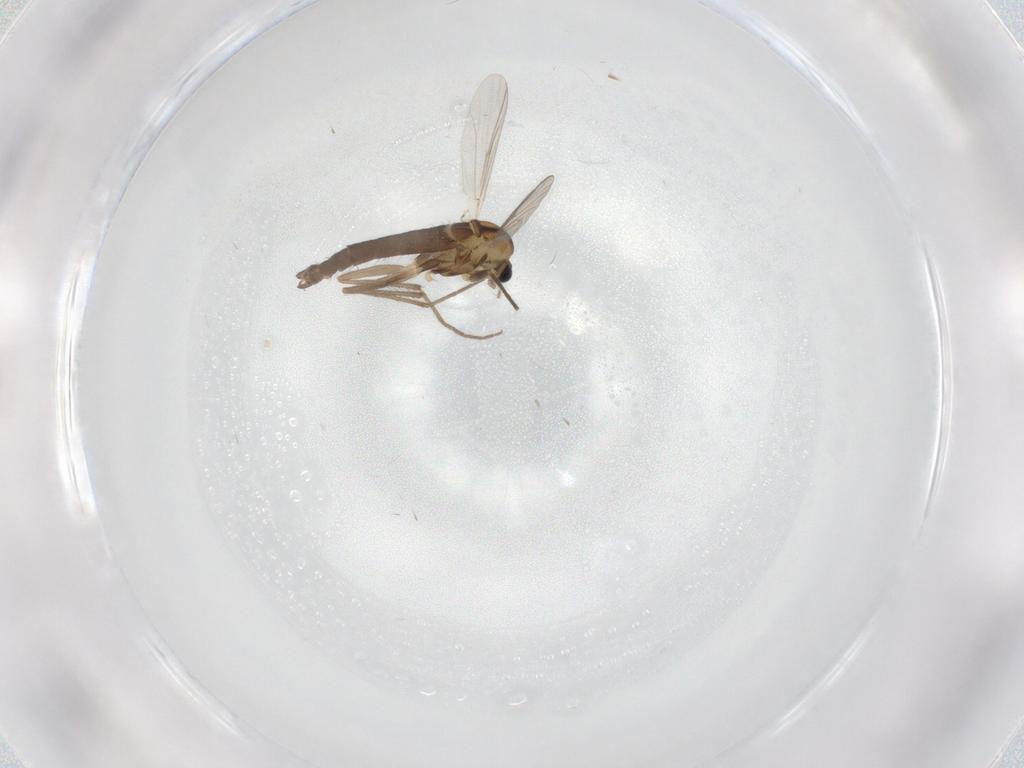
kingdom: Animalia
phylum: Arthropoda
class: Insecta
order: Diptera
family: Chironomidae
